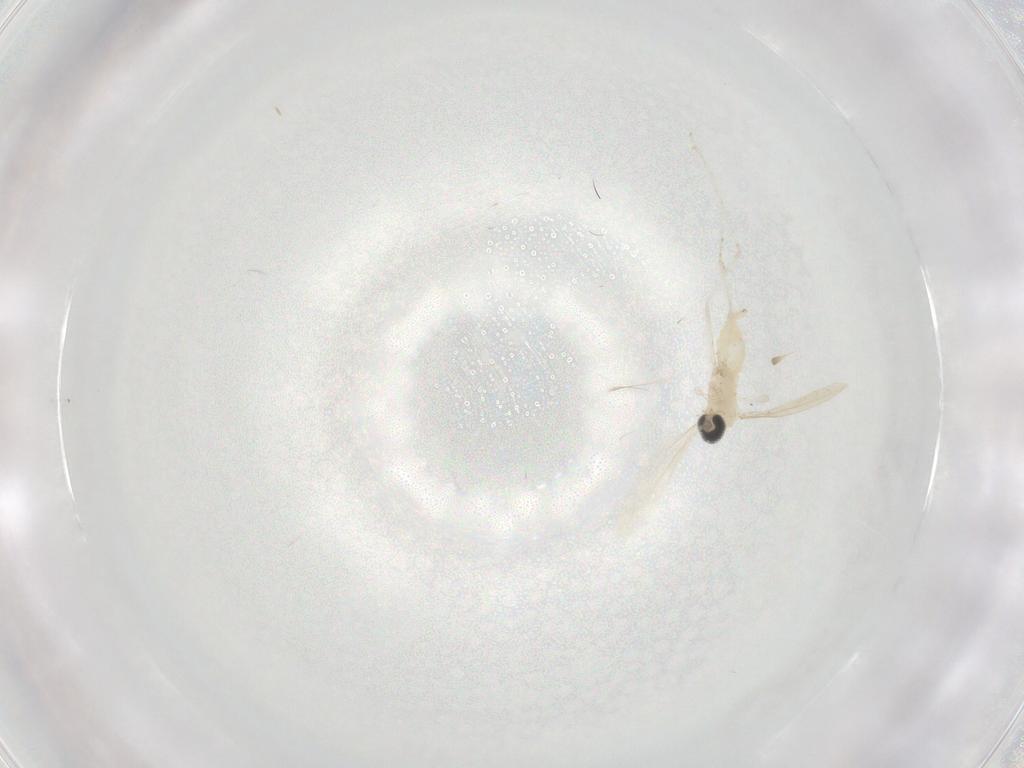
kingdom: Animalia
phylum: Arthropoda
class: Insecta
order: Diptera
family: Cecidomyiidae
